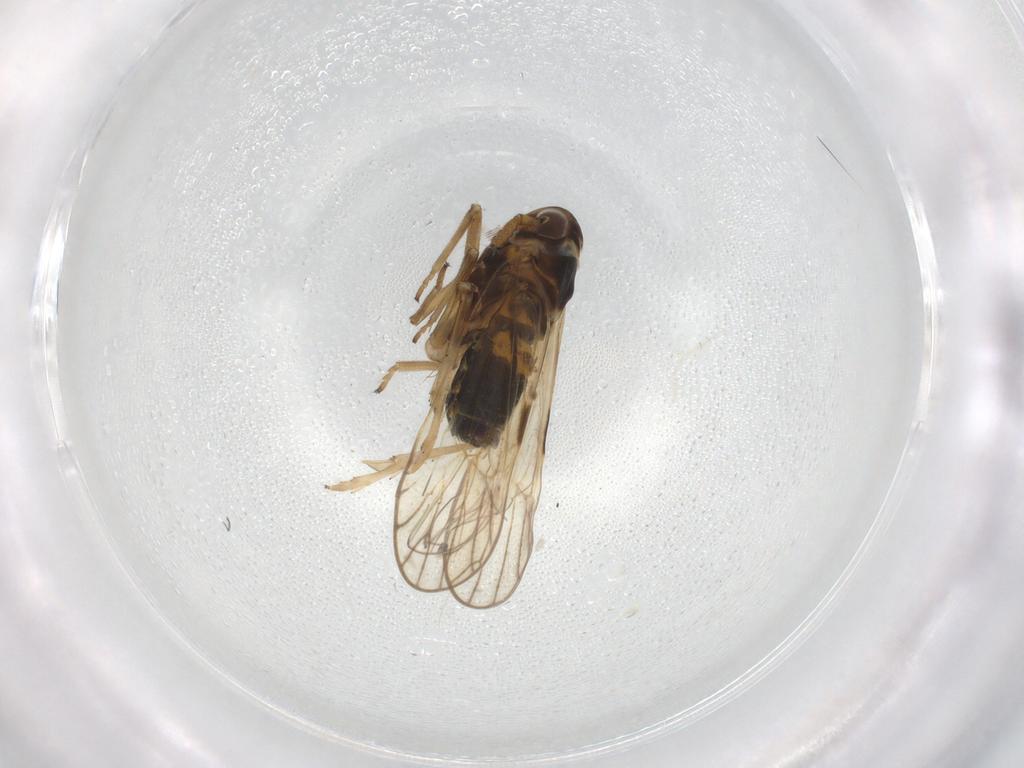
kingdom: Animalia
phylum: Arthropoda
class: Insecta
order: Hemiptera
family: Delphacidae
